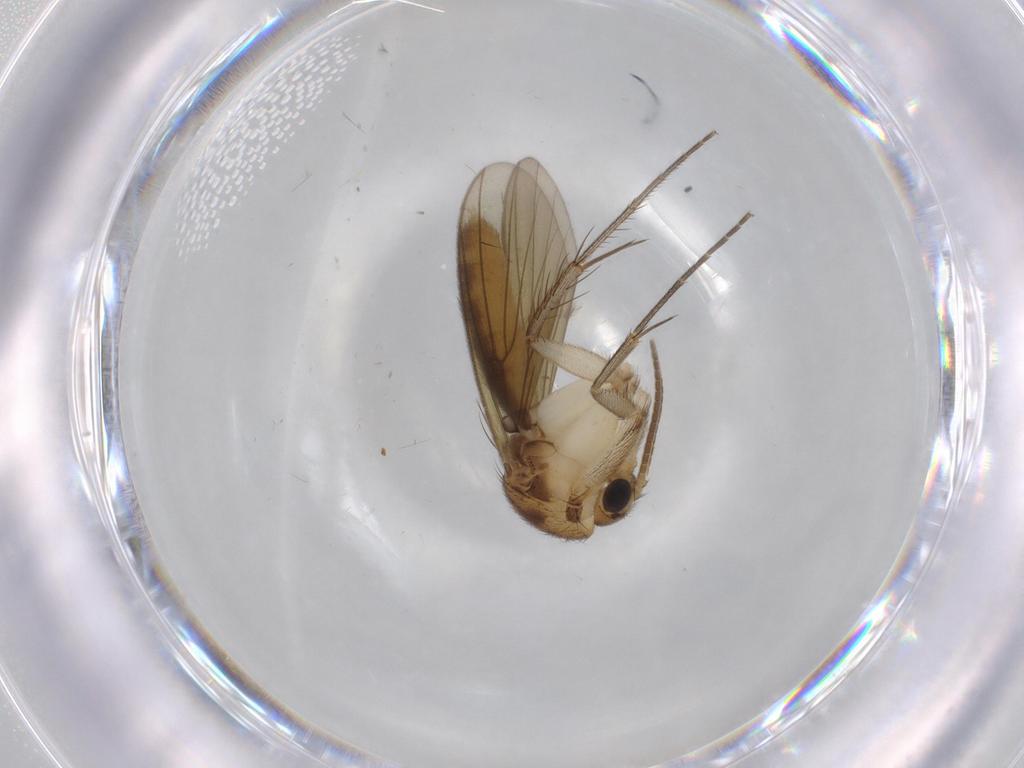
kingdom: Animalia
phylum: Arthropoda
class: Insecta
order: Diptera
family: Mycetophilidae
